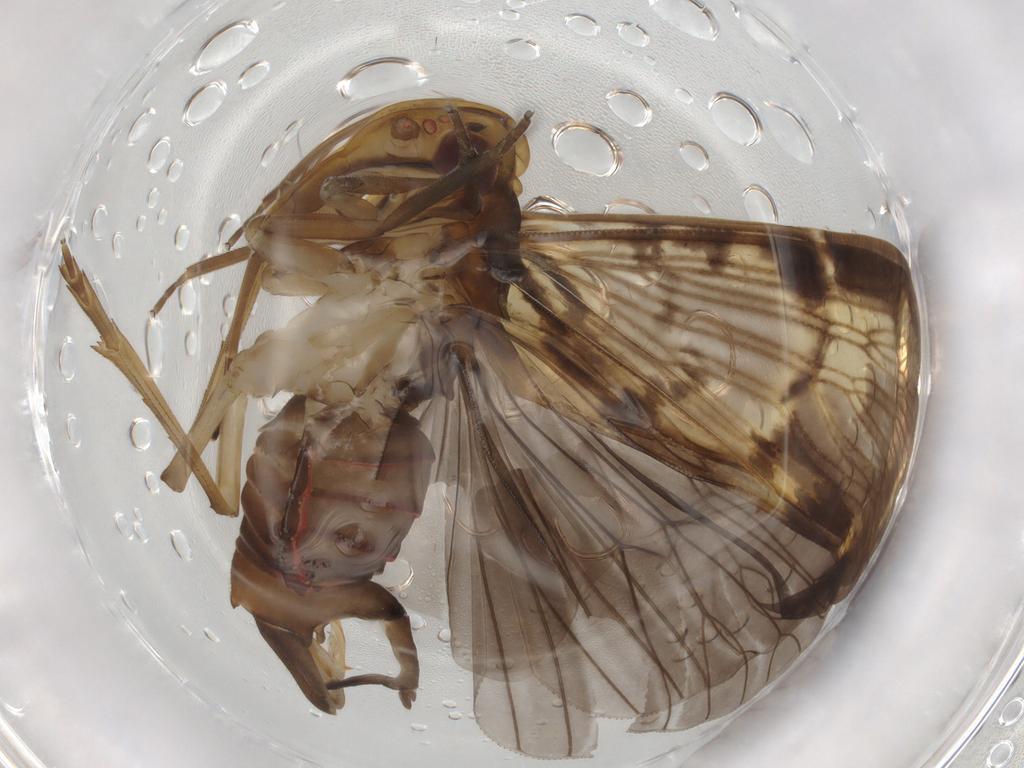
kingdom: Animalia
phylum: Arthropoda
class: Insecta
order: Hemiptera
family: Cixiidae
